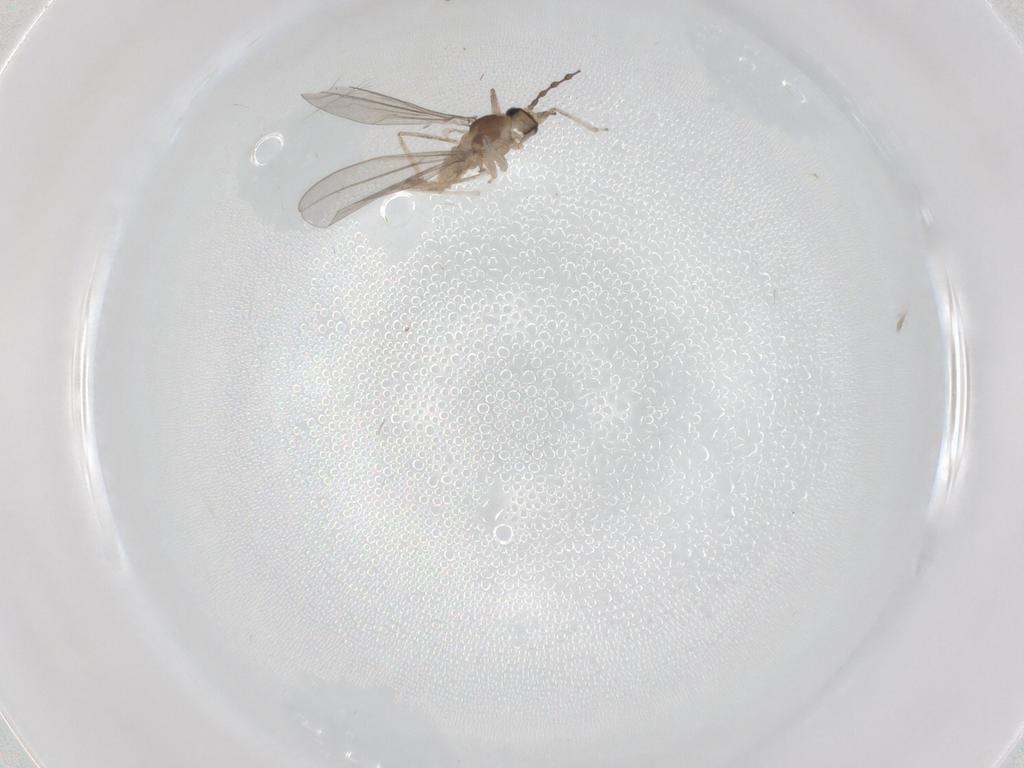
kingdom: Animalia
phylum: Arthropoda
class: Insecta
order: Diptera
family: Cecidomyiidae
